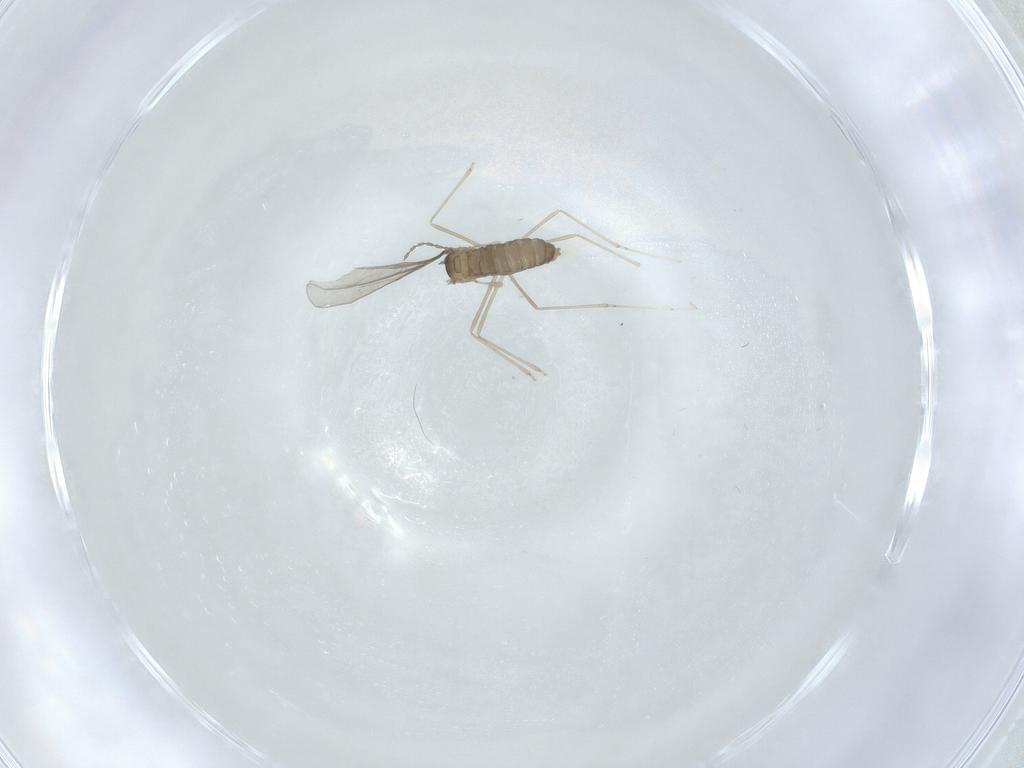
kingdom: Animalia
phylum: Arthropoda
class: Insecta
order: Diptera
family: Cecidomyiidae
